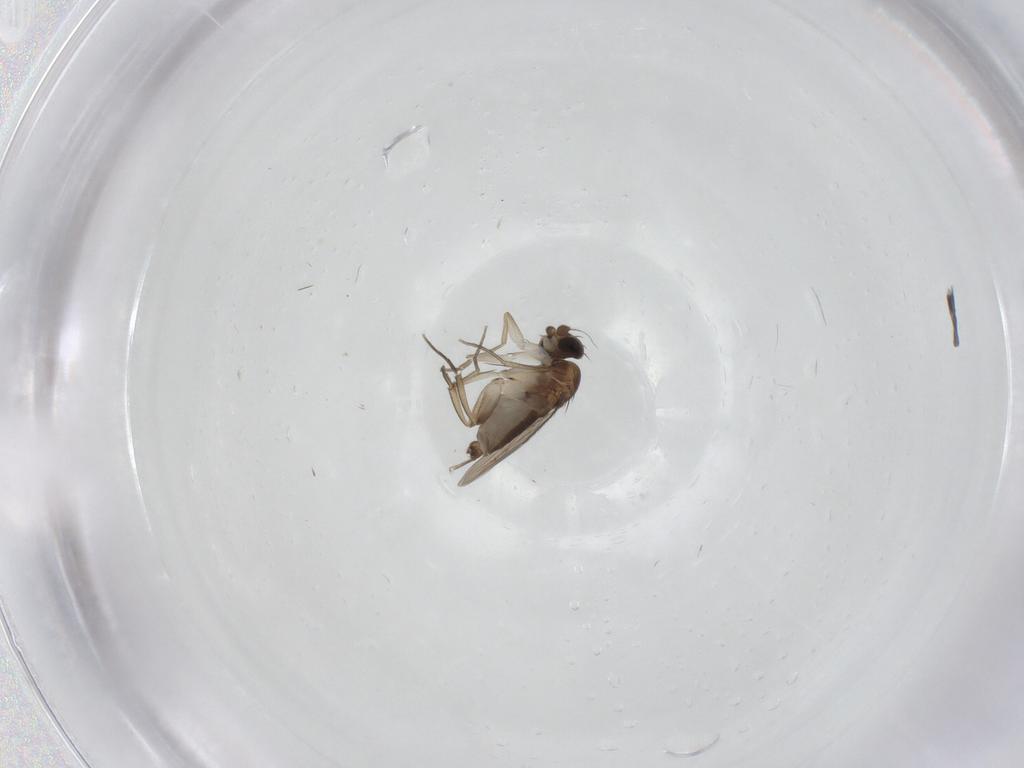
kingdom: Animalia
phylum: Arthropoda
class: Insecta
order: Diptera
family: Phoridae
